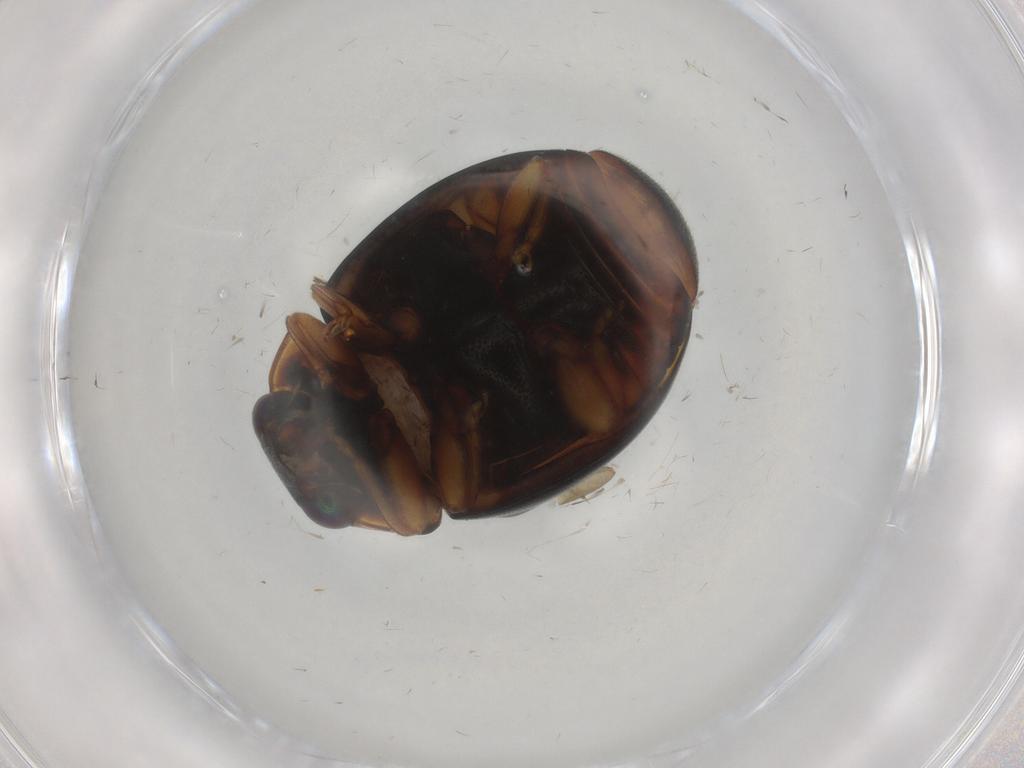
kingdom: Animalia
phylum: Arthropoda
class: Insecta
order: Coleoptera
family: Coccinellidae
